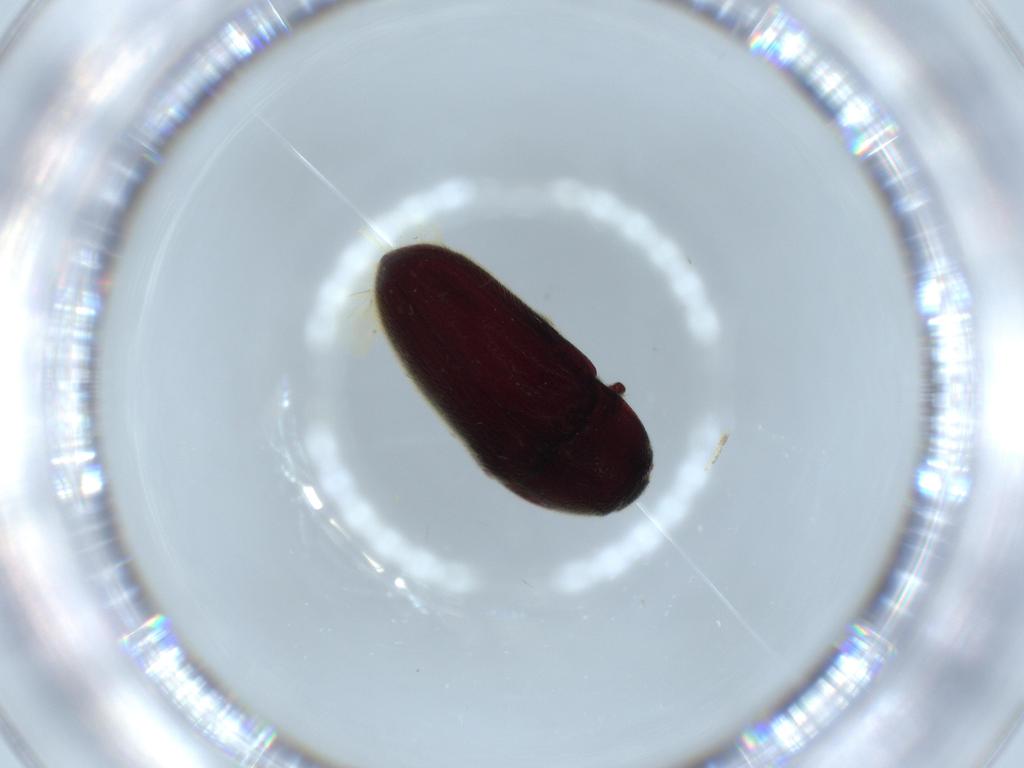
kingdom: Animalia
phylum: Arthropoda
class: Insecta
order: Coleoptera
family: Throscidae
